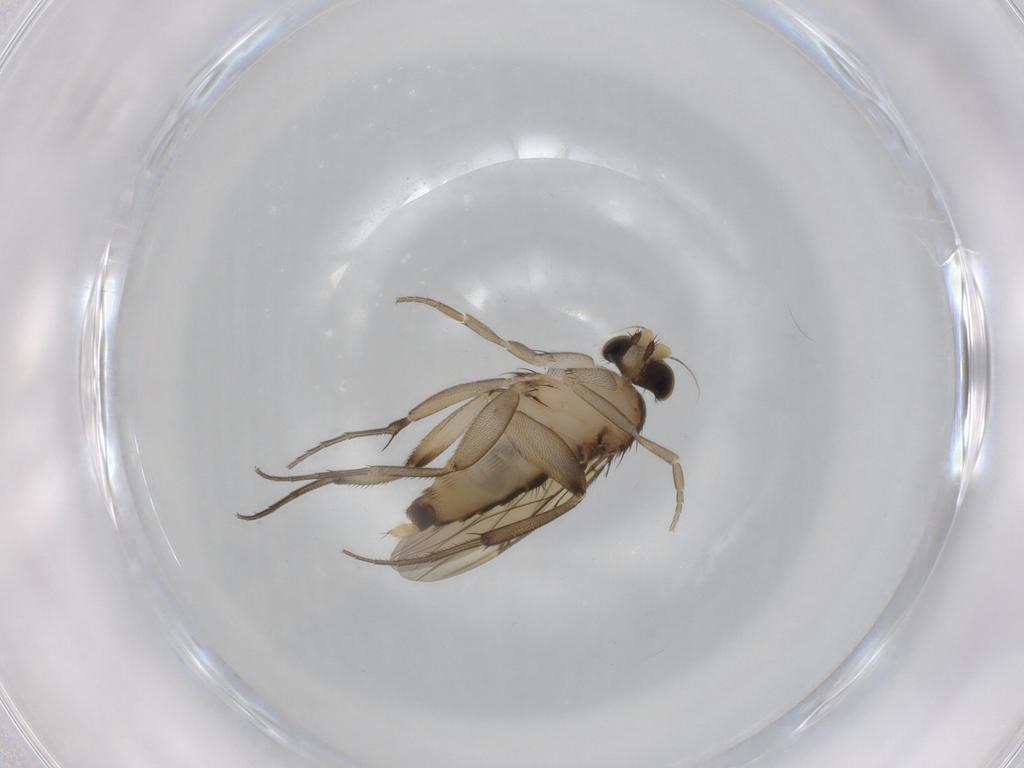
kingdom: Animalia
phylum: Arthropoda
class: Insecta
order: Diptera
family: Phoridae
